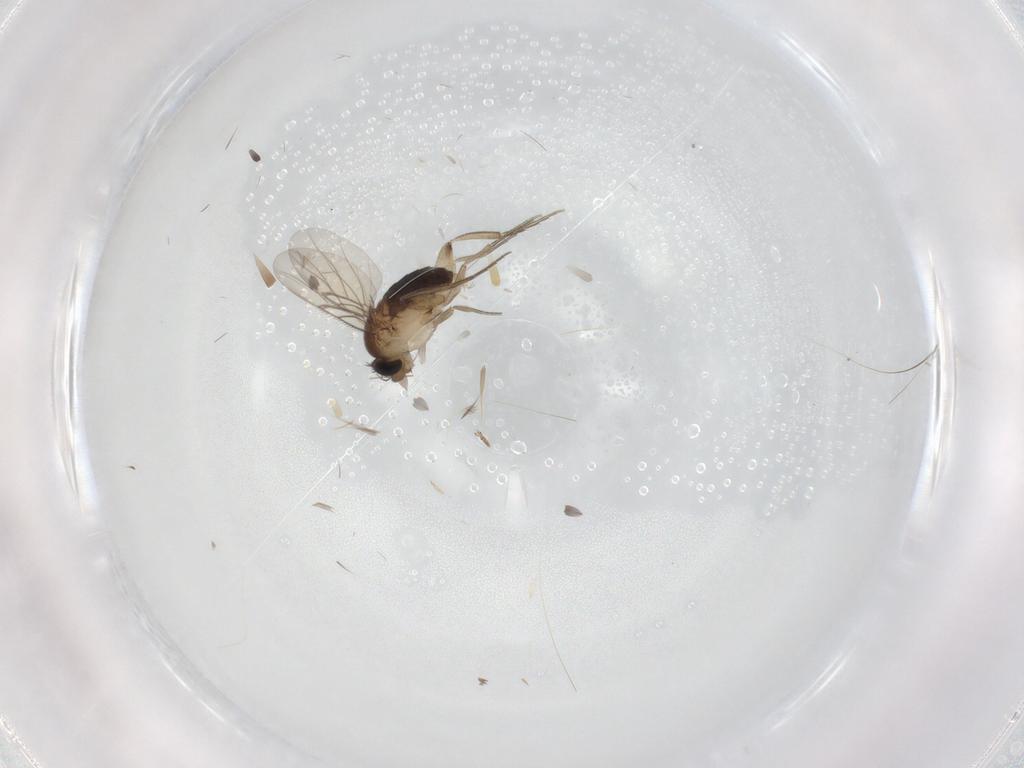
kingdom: Animalia
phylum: Arthropoda
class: Insecta
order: Diptera
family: Phoridae
